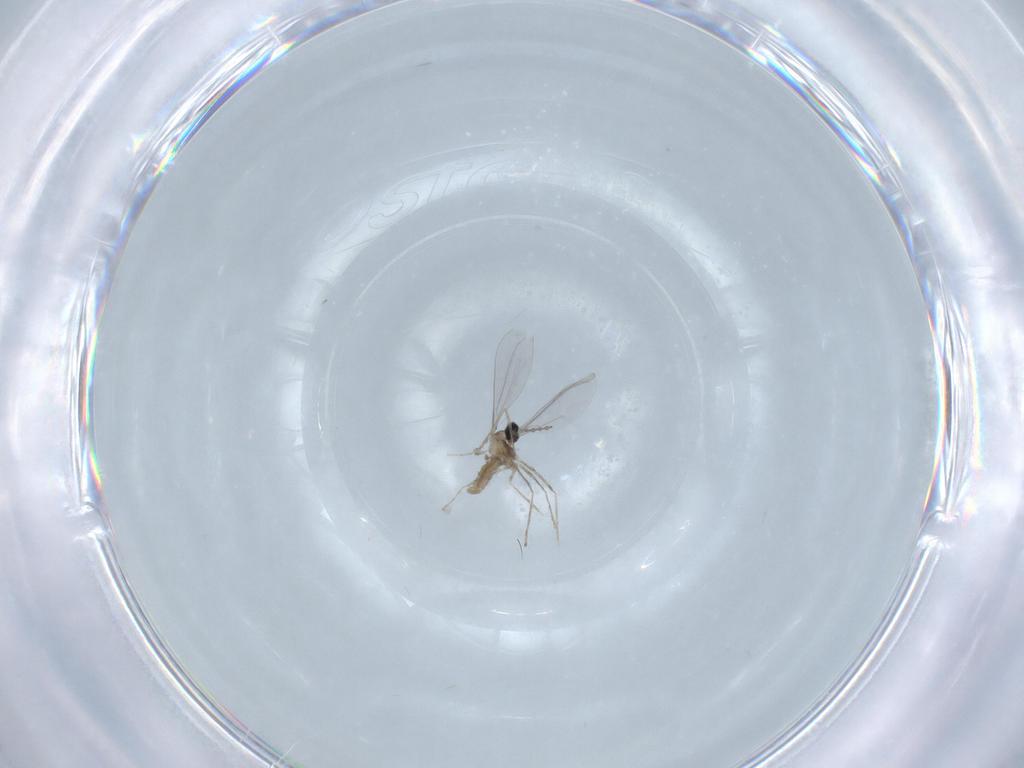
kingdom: Animalia
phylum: Arthropoda
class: Insecta
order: Diptera
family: Cecidomyiidae
